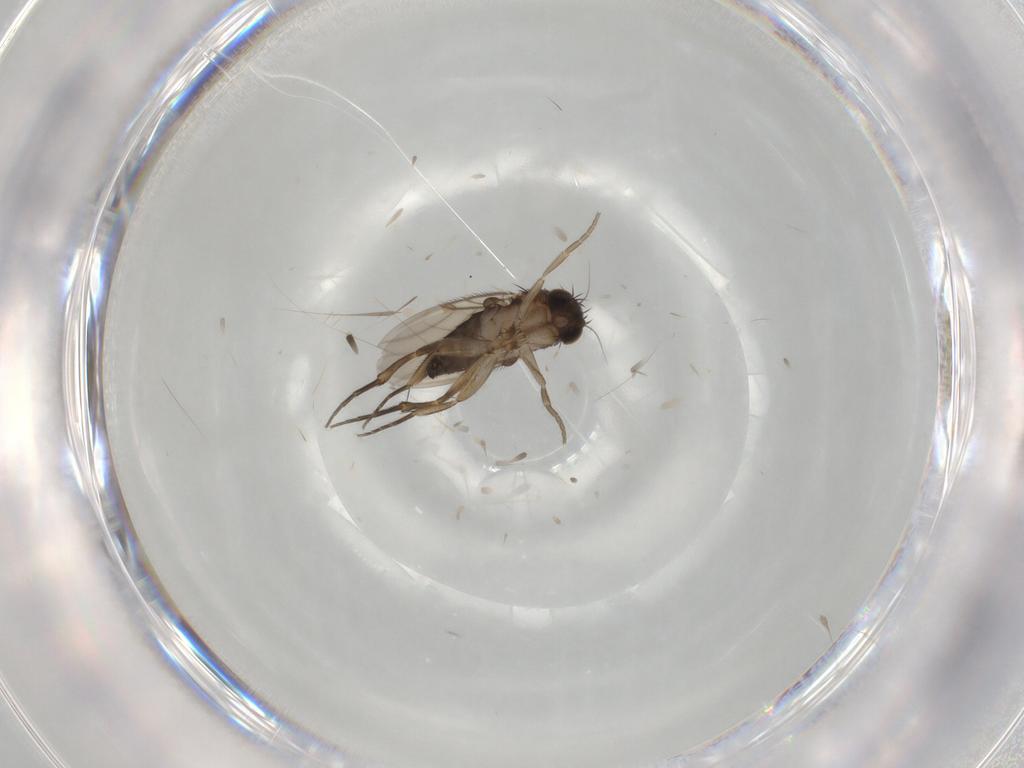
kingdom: Animalia
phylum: Arthropoda
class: Insecta
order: Diptera
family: Phoridae
